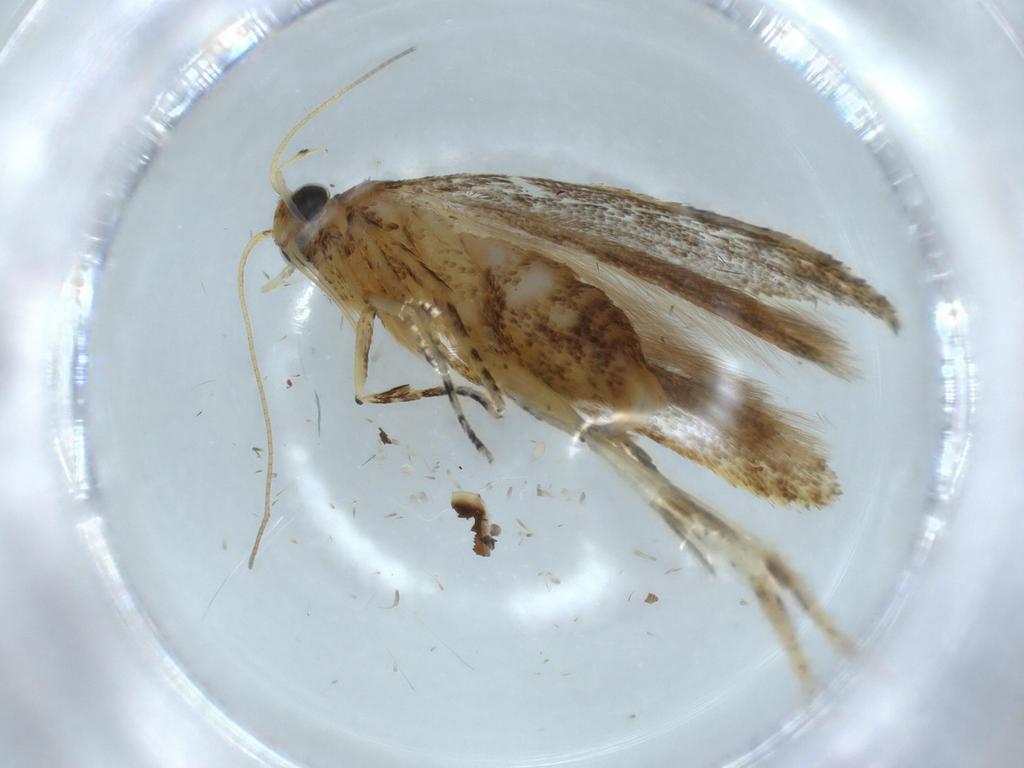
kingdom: Animalia
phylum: Arthropoda
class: Insecta
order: Lepidoptera
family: Gelechiidae
